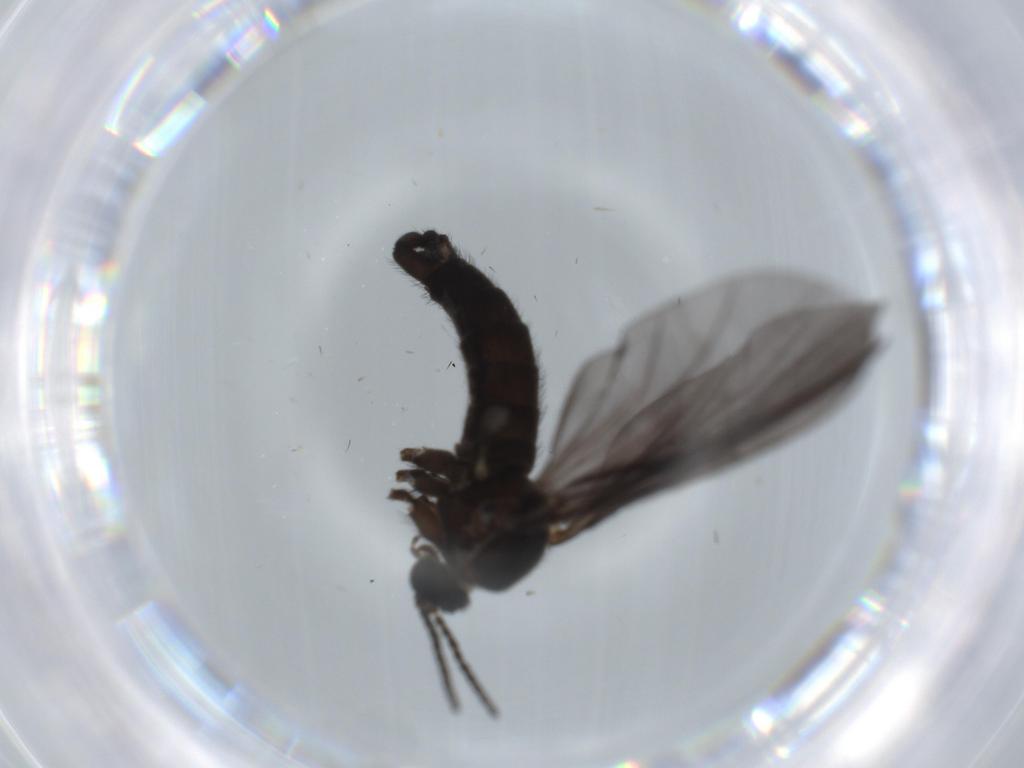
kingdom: Animalia
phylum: Arthropoda
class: Insecta
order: Diptera
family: Sciaridae
